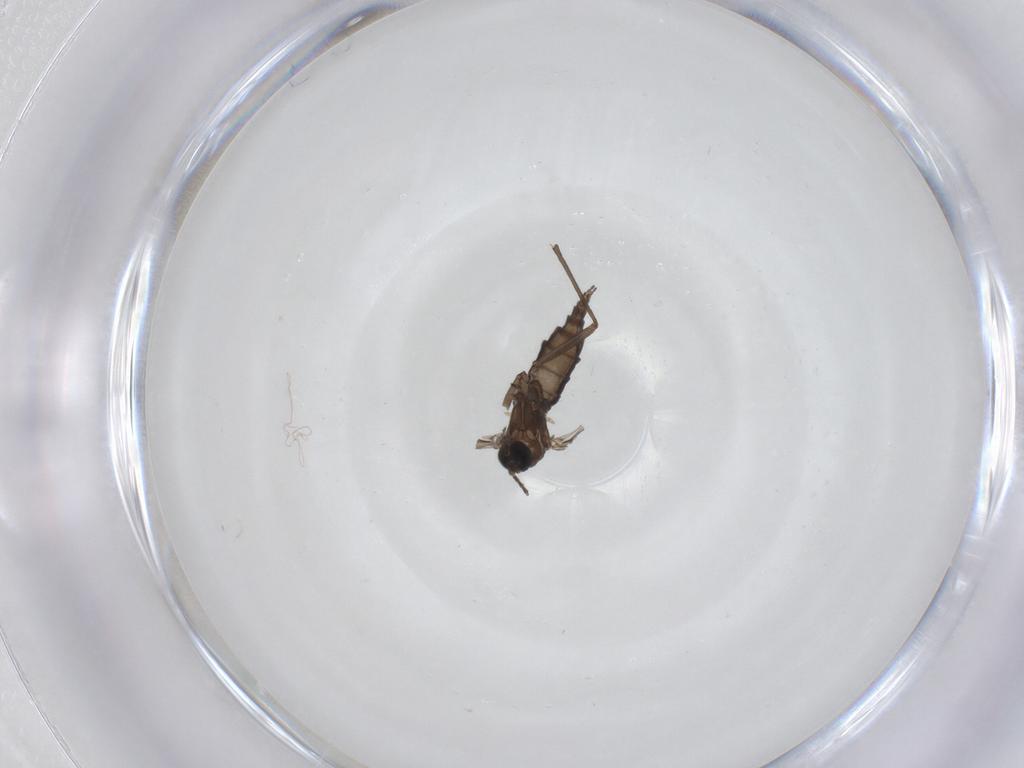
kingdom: Animalia
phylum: Arthropoda
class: Insecta
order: Diptera
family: Sciaridae
